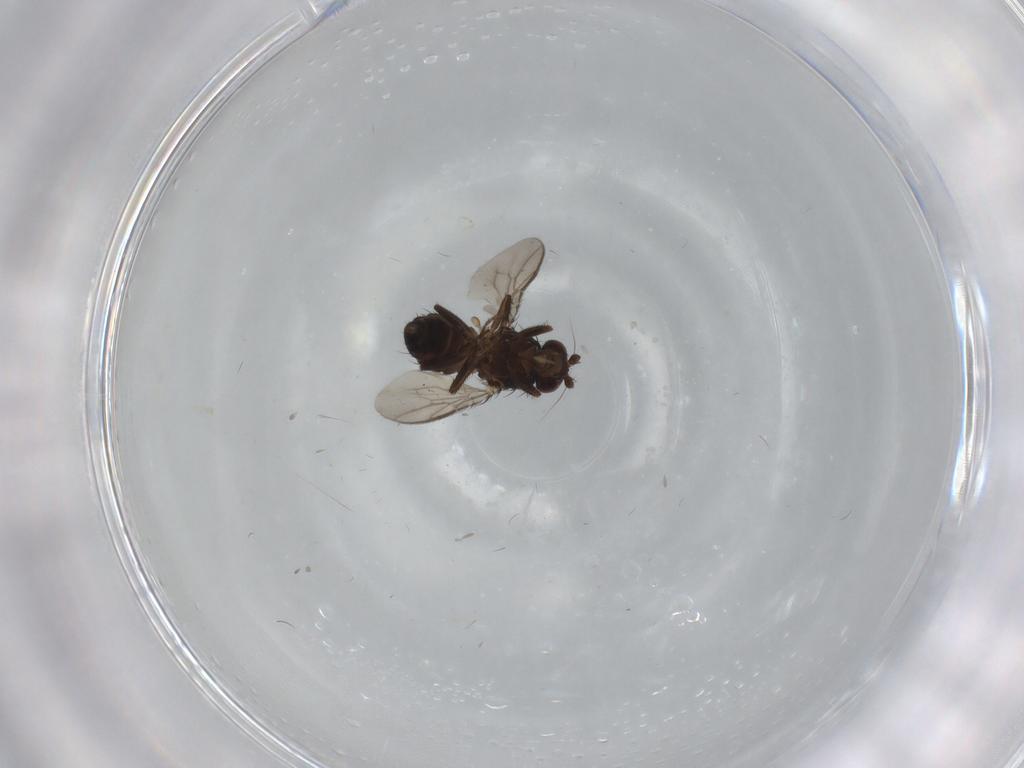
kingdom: Animalia
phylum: Arthropoda
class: Insecta
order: Diptera
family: Sphaeroceridae
